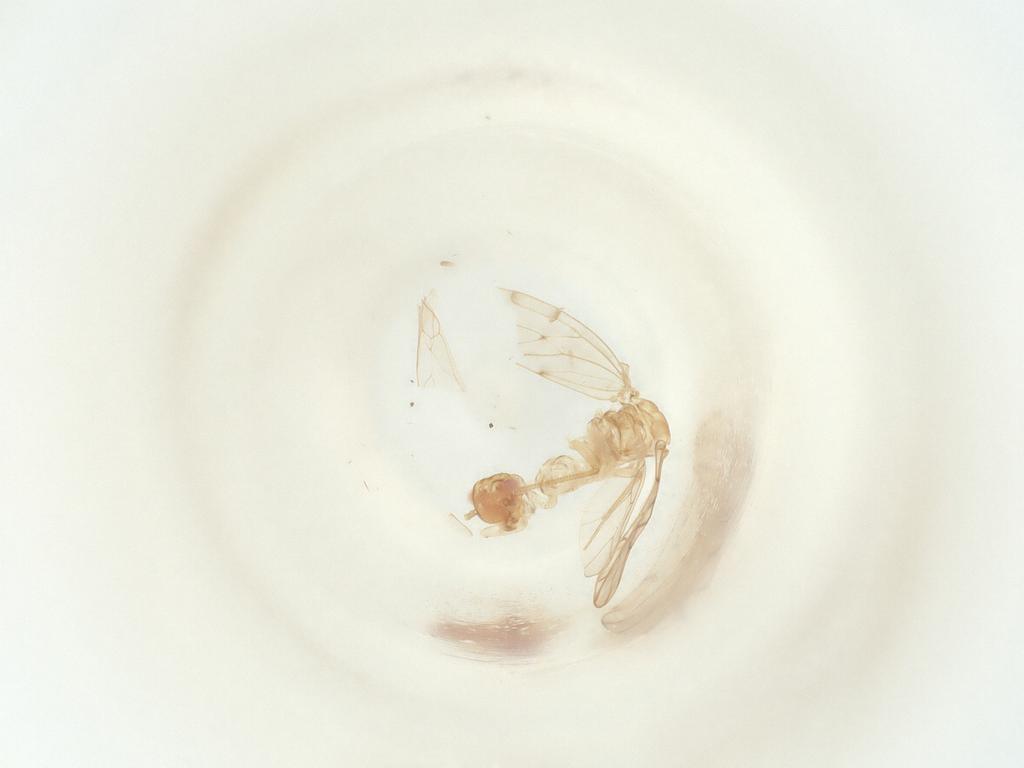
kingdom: Animalia
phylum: Arthropoda
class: Insecta
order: Diptera
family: Muscidae
